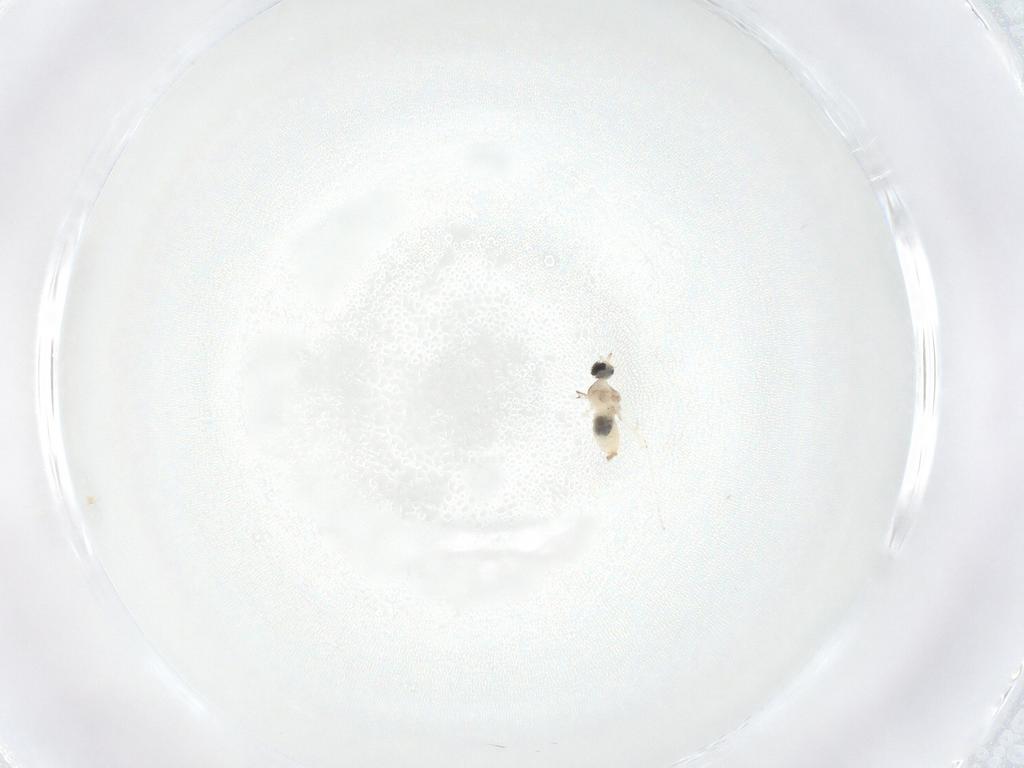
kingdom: Animalia
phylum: Arthropoda
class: Insecta
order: Diptera
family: Cecidomyiidae
